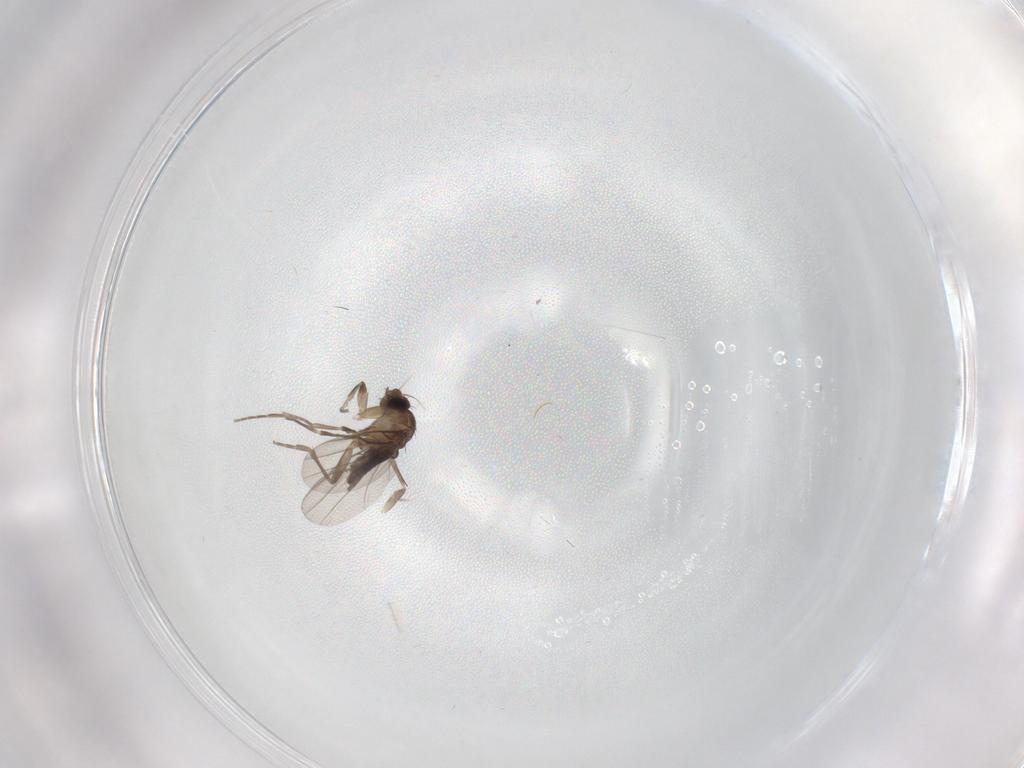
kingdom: Animalia
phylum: Arthropoda
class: Insecta
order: Diptera
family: Phoridae
